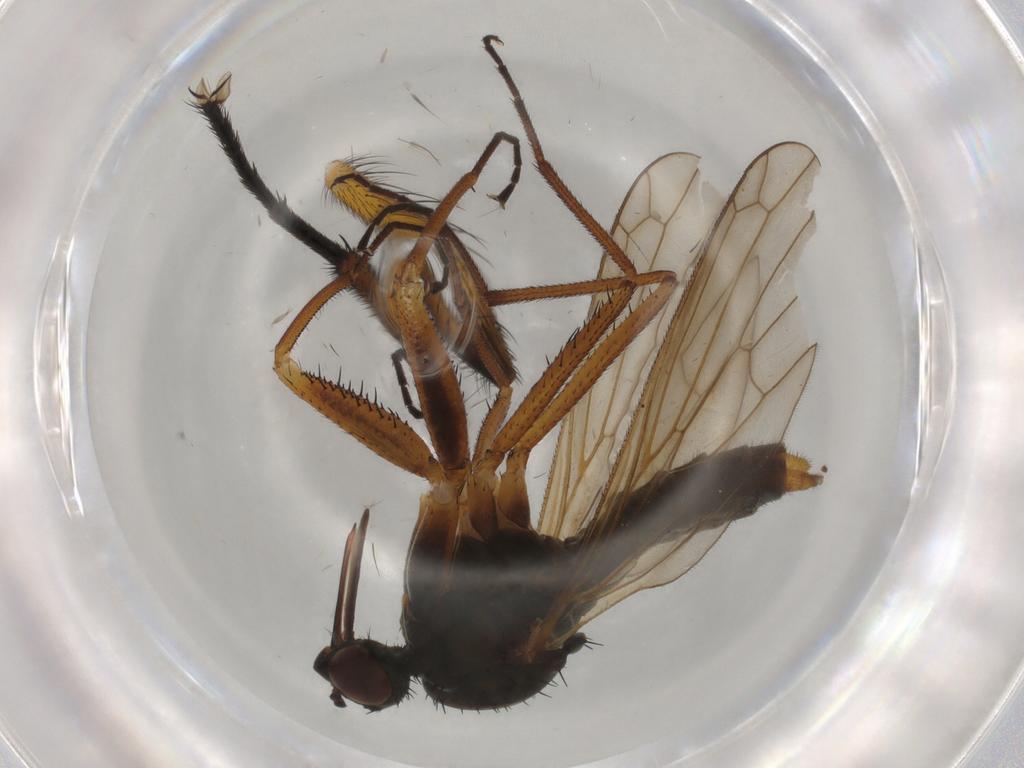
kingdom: Animalia
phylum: Arthropoda
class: Insecta
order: Diptera
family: Muscidae
